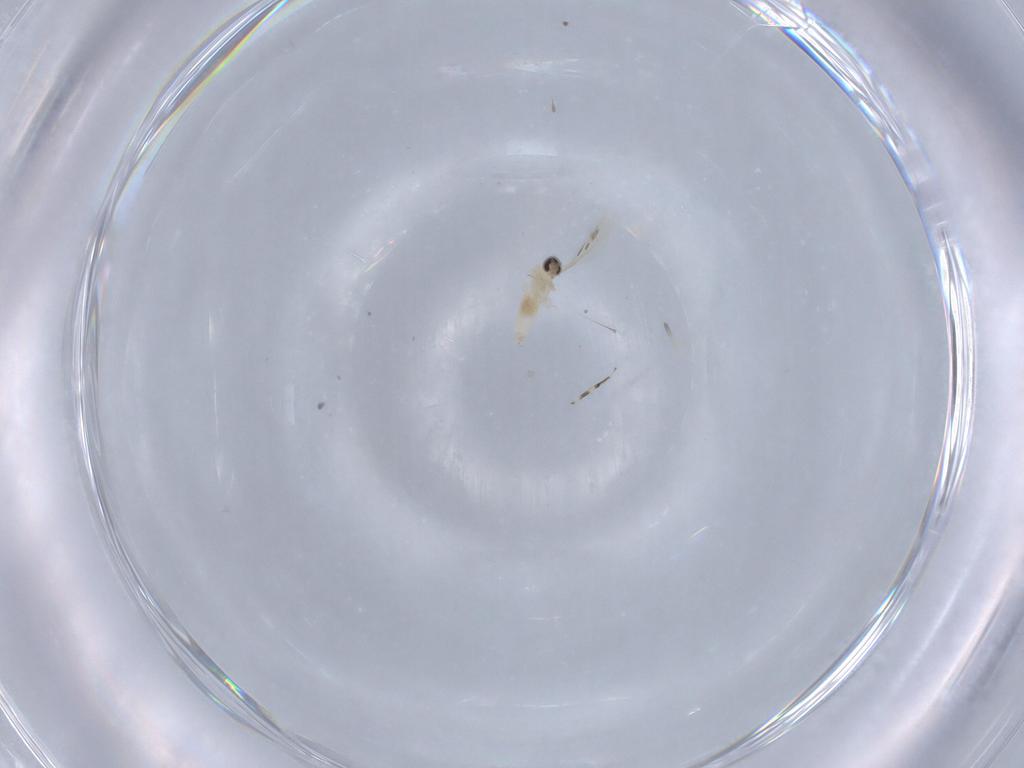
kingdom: Animalia
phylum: Arthropoda
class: Insecta
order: Diptera
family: Cecidomyiidae
